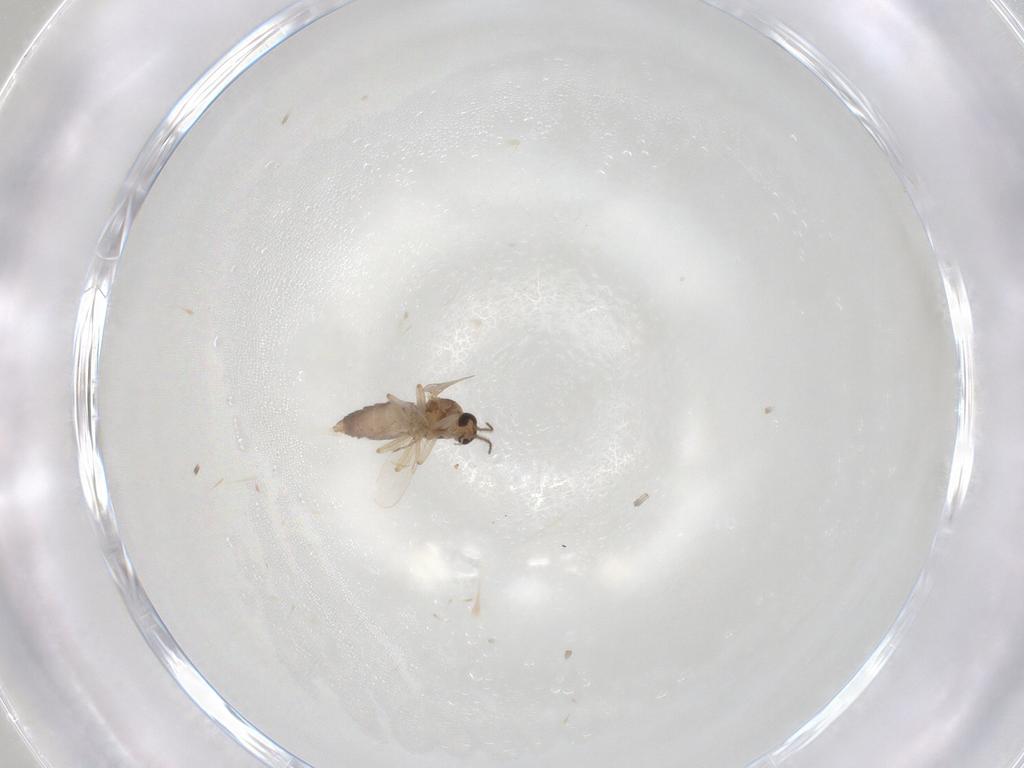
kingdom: Animalia
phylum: Arthropoda
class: Insecta
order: Diptera
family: Ceratopogonidae
